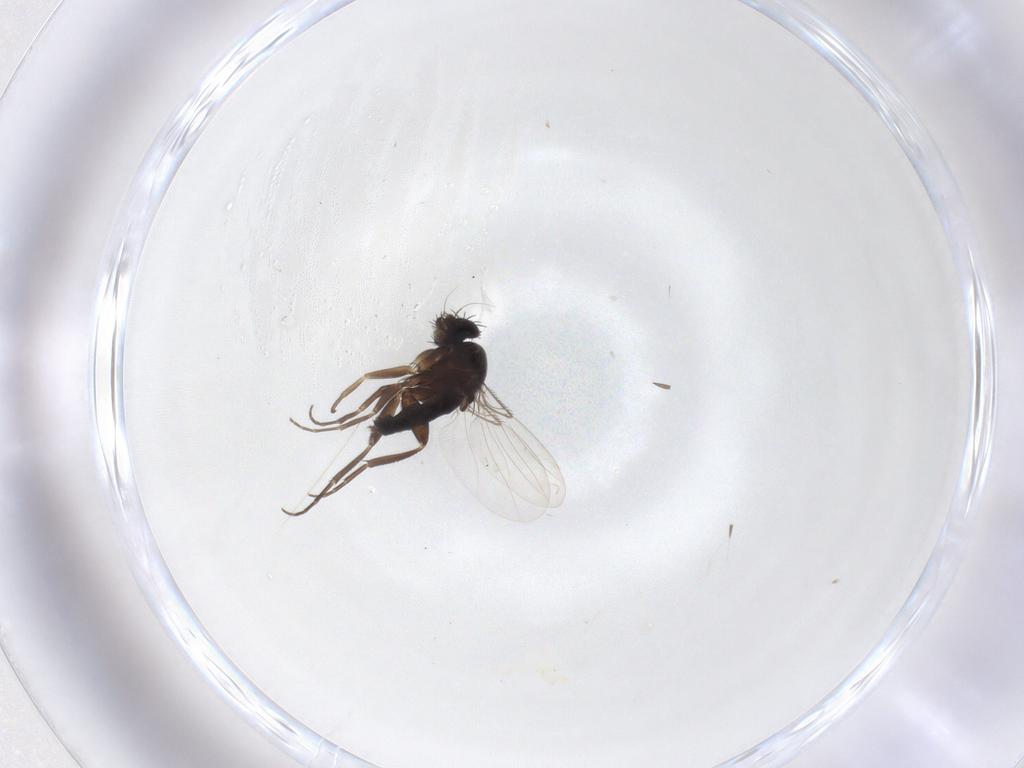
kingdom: Animalia
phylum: Arthropoda
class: Insecta
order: Diptera
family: Phoridae
